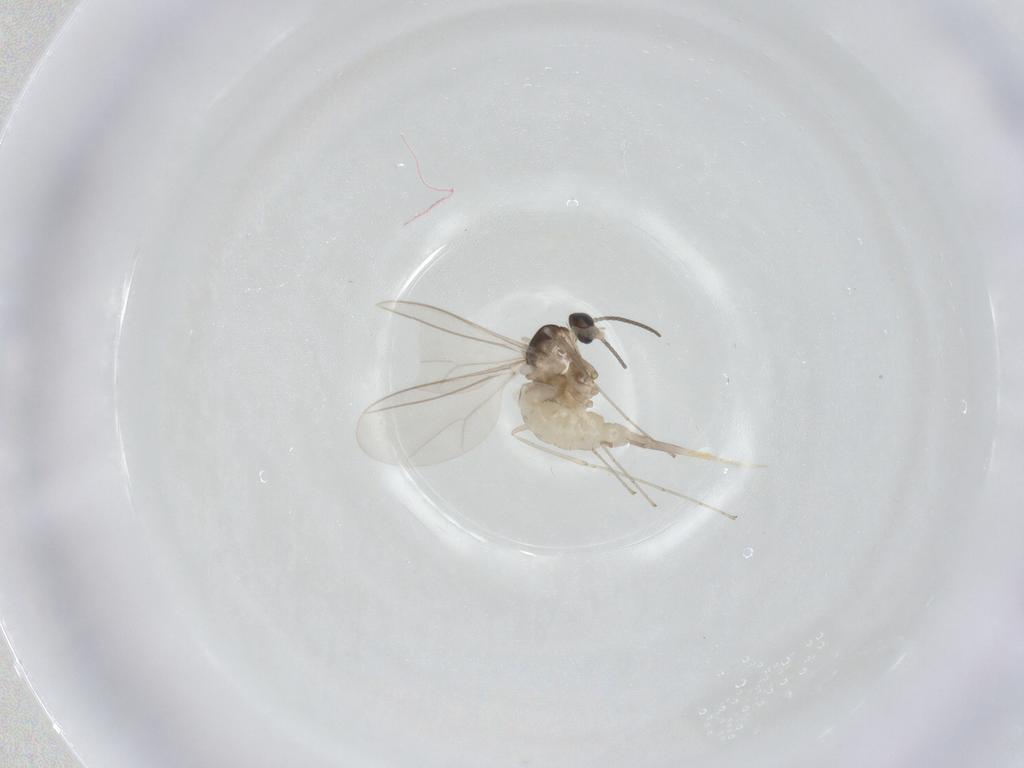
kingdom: Animalia
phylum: Arthropoda
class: Insecta
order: Diptera
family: Cecidomyiidae
